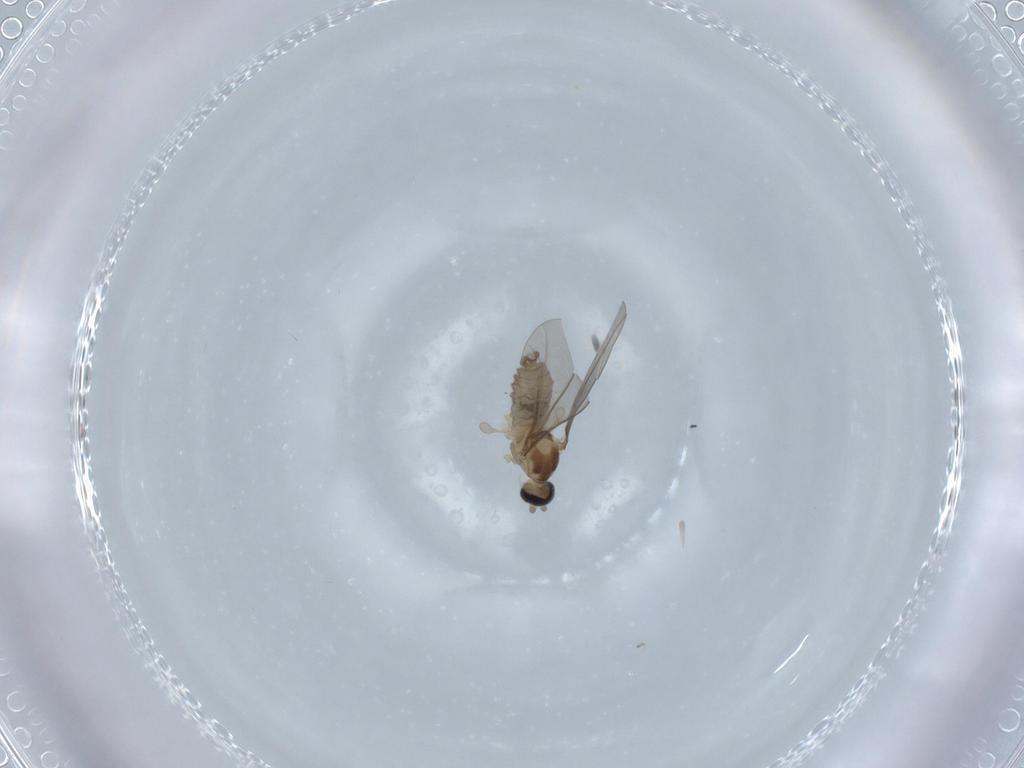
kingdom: Animalia
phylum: Arthropoda
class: Insecta
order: Diptera
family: Cecidomyiidae
